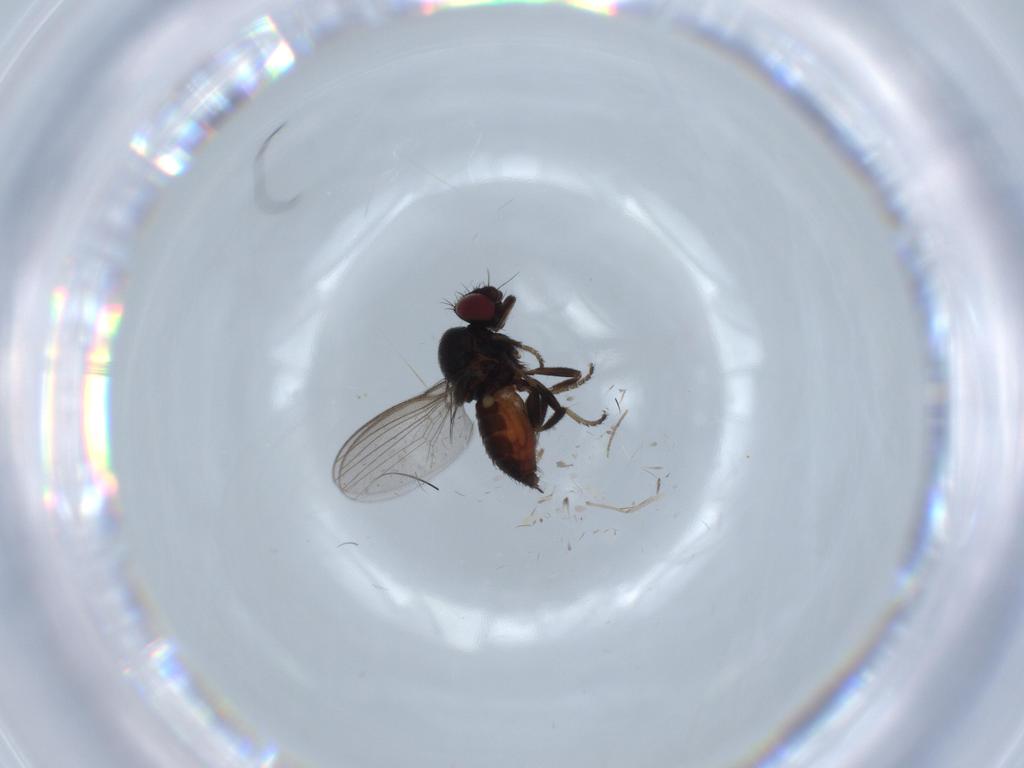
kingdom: Animalia
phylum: Arthropoda
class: Insecta
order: Diptera
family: Milichiidae
